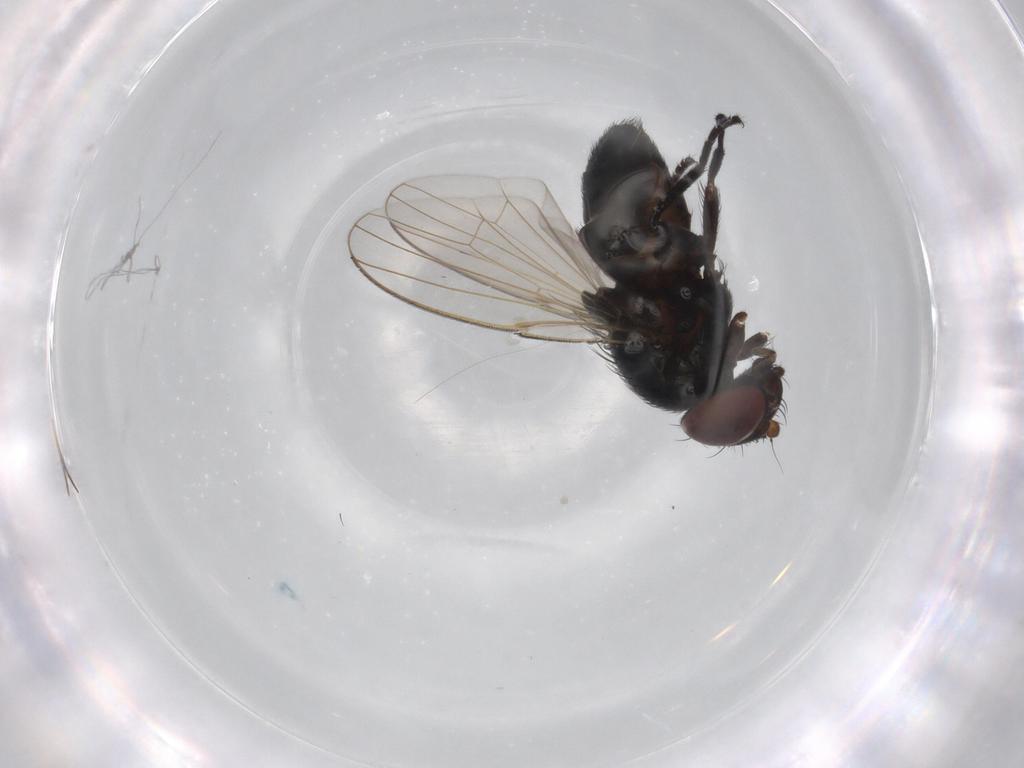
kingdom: Animalia
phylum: Arthropoda
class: Insecta
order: Diptera
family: Milichiidae
